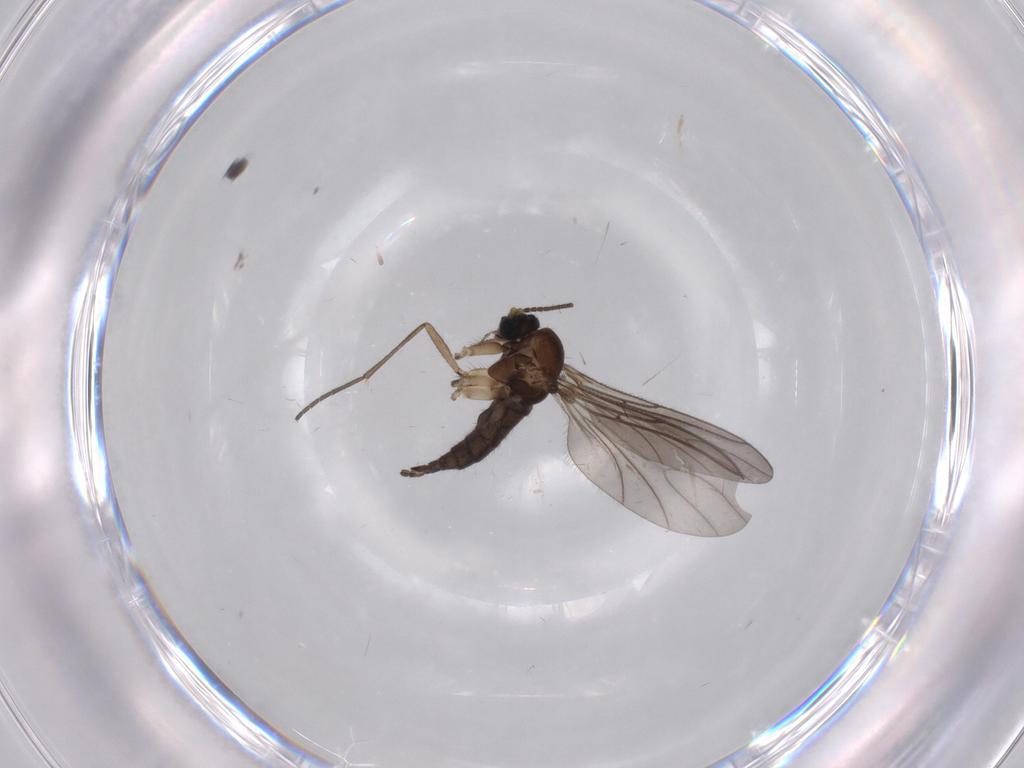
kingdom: Animalia
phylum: Arthropoda
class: Insecta
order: Diptera
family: Sciaridae
